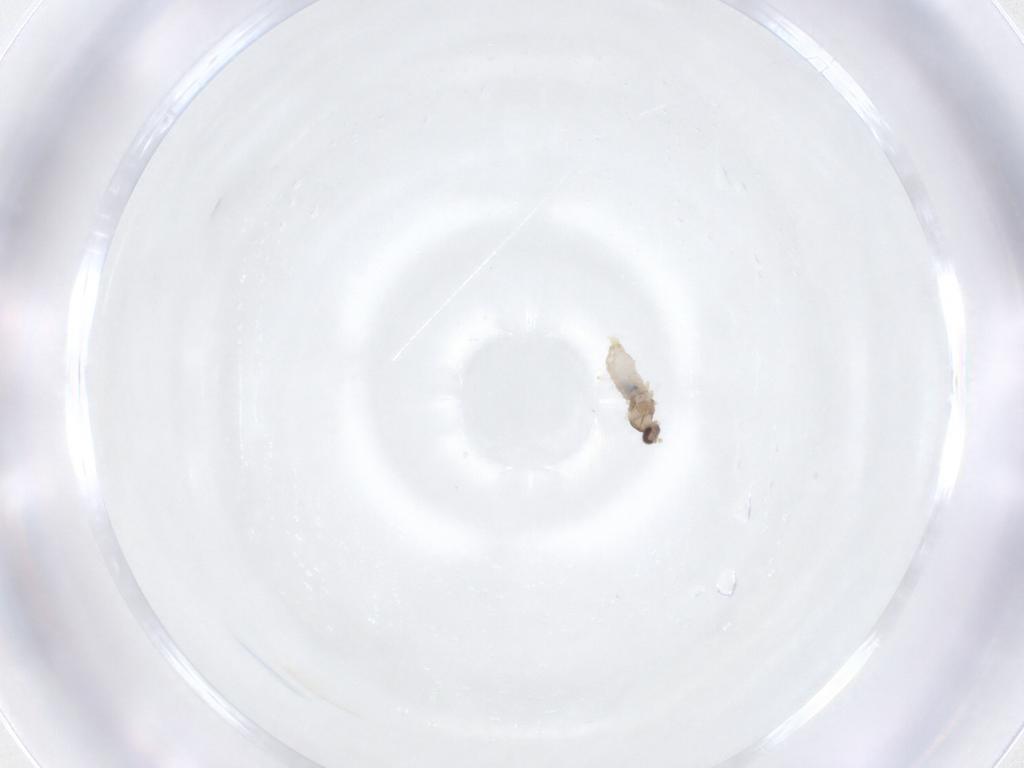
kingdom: Animalia
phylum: Arthropoda
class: Insecta
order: Diptera
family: Cecidomyiidae
